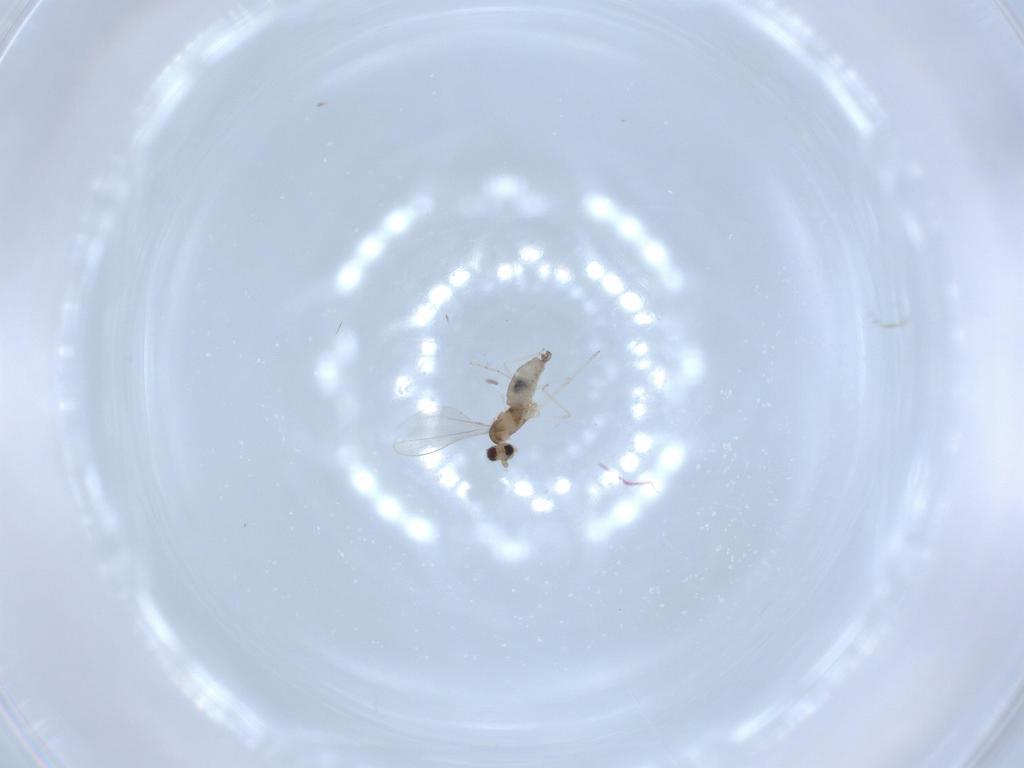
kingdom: Animalia
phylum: Arthropoda
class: Insecta
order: Diptera
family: Cecidomyiidae
